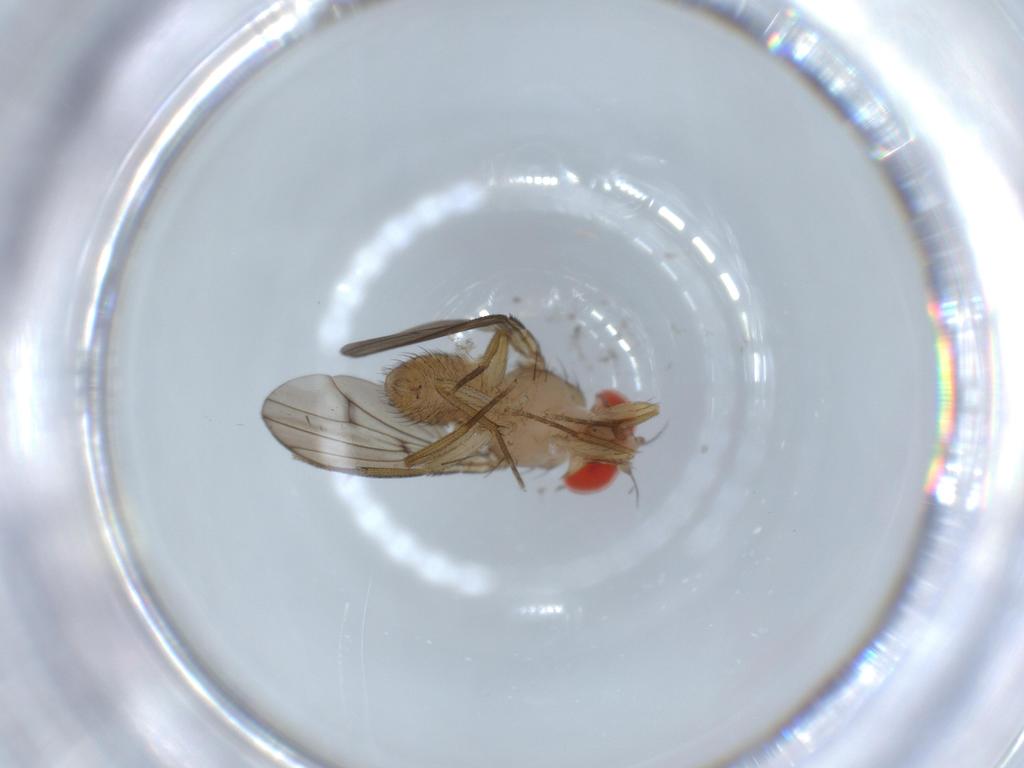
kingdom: Animalia
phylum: Arthropoda
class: Insecta
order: Diptera
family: Drosophilidae
